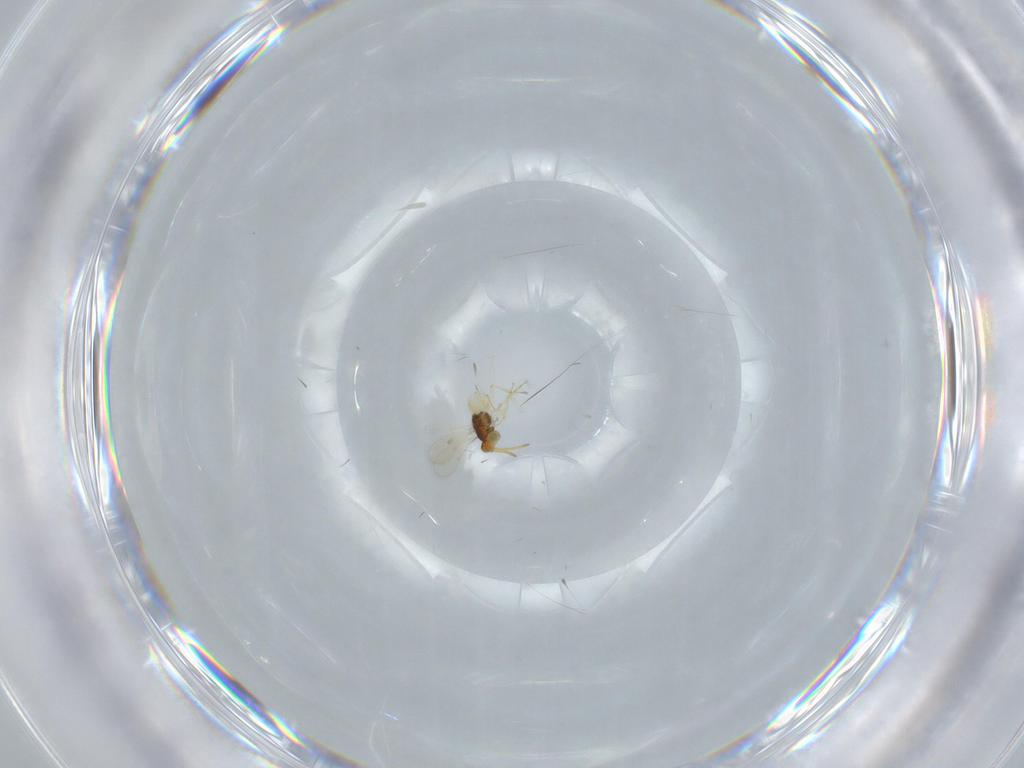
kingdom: Animalia
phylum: Arthropoda
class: Insecta
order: Hymenoptera
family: Aphelinidae
